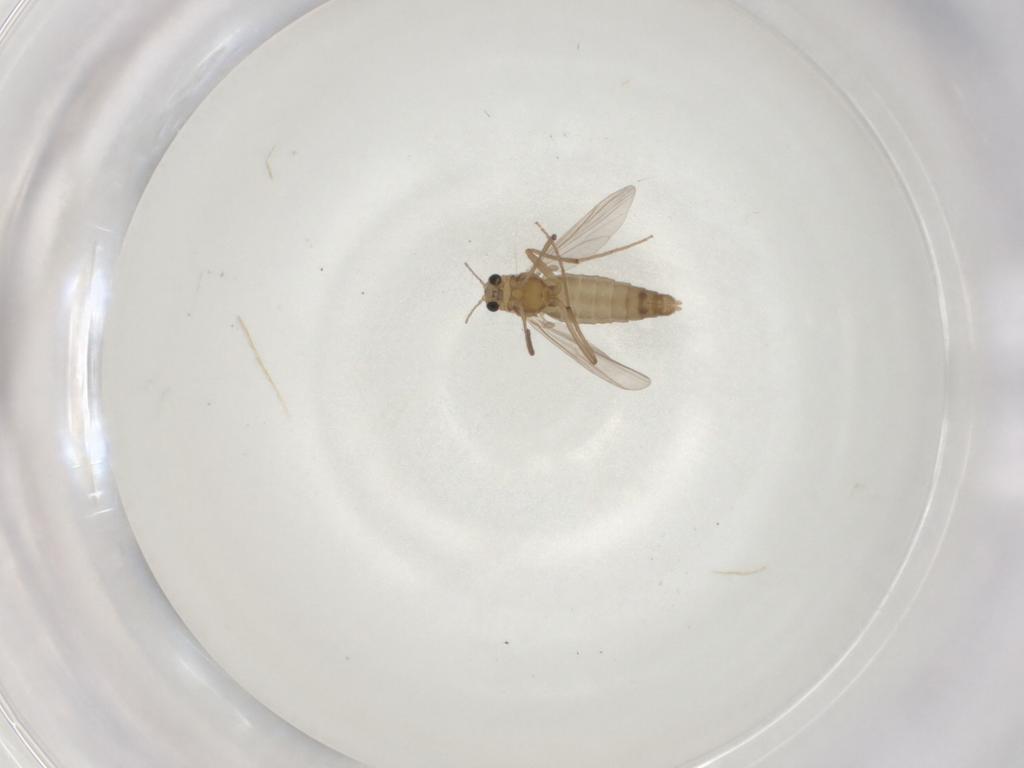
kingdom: Animalia
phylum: Arthropoda
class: Insecta
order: Diptera
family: Chironomidae
